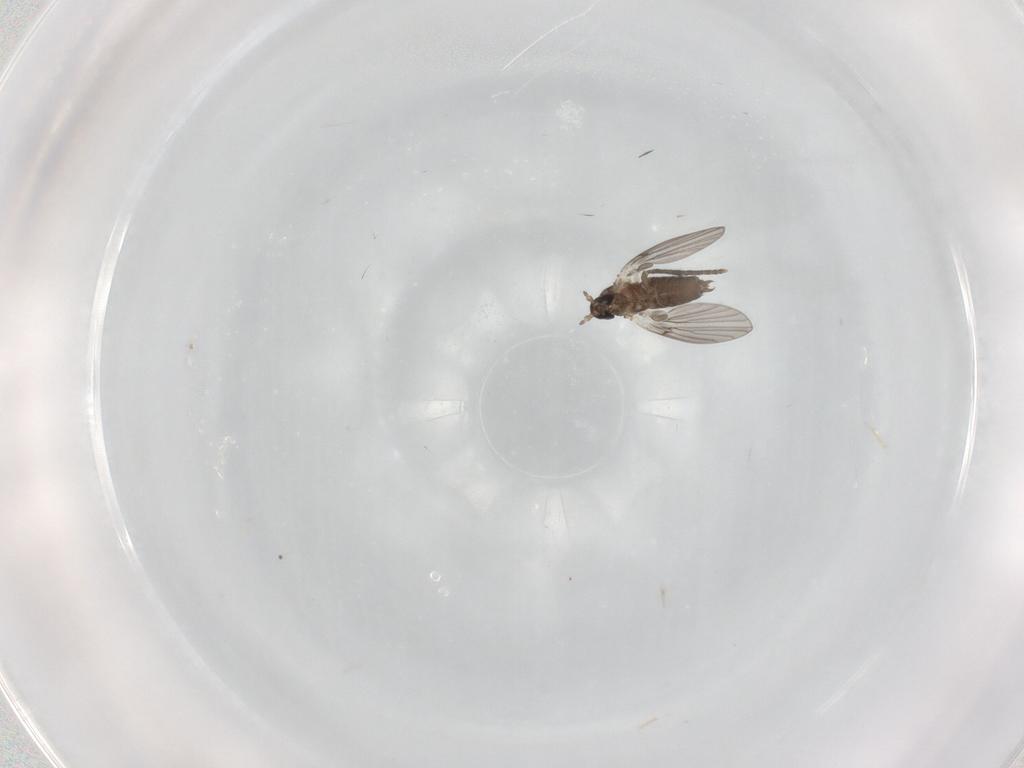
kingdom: Animalia
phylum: Arthropoda
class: Insecta
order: Diptera
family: Psychodidae
